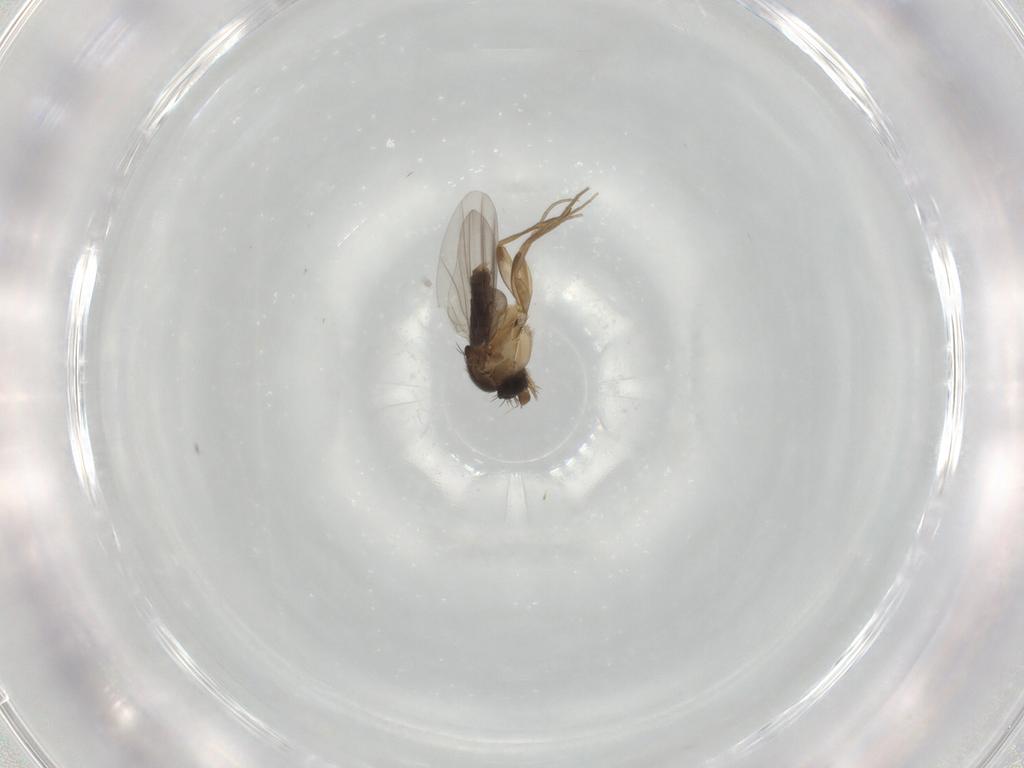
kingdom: Animalia
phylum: Arthropoda
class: Insecta
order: Diptera
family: Phoridae
